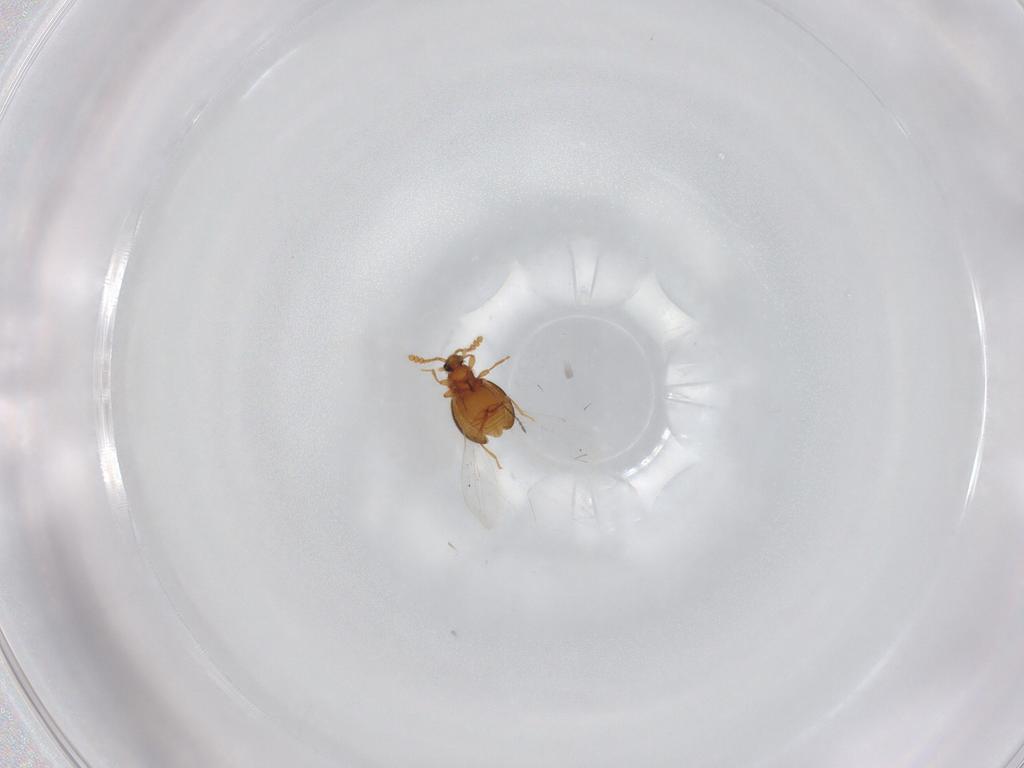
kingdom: Animalia
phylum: Arthropoda
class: Insecta
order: Coleoptera
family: Staphylinidae
